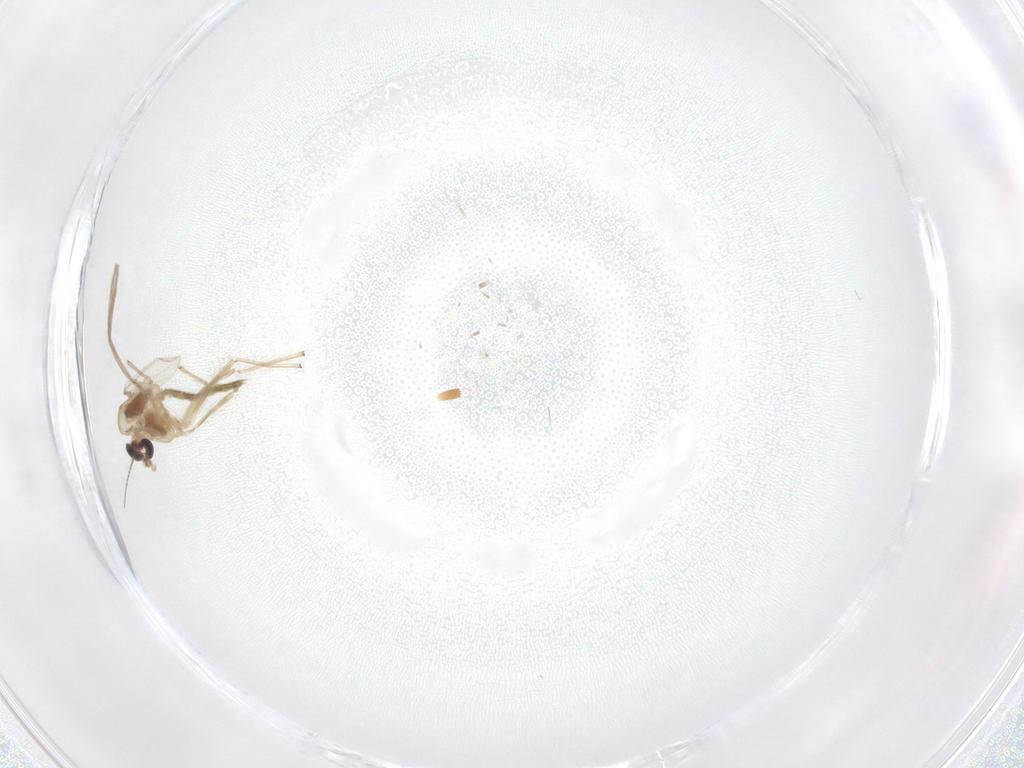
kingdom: Animalia
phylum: Arthropoda
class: Insecta
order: Diptera
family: Chironomidae
